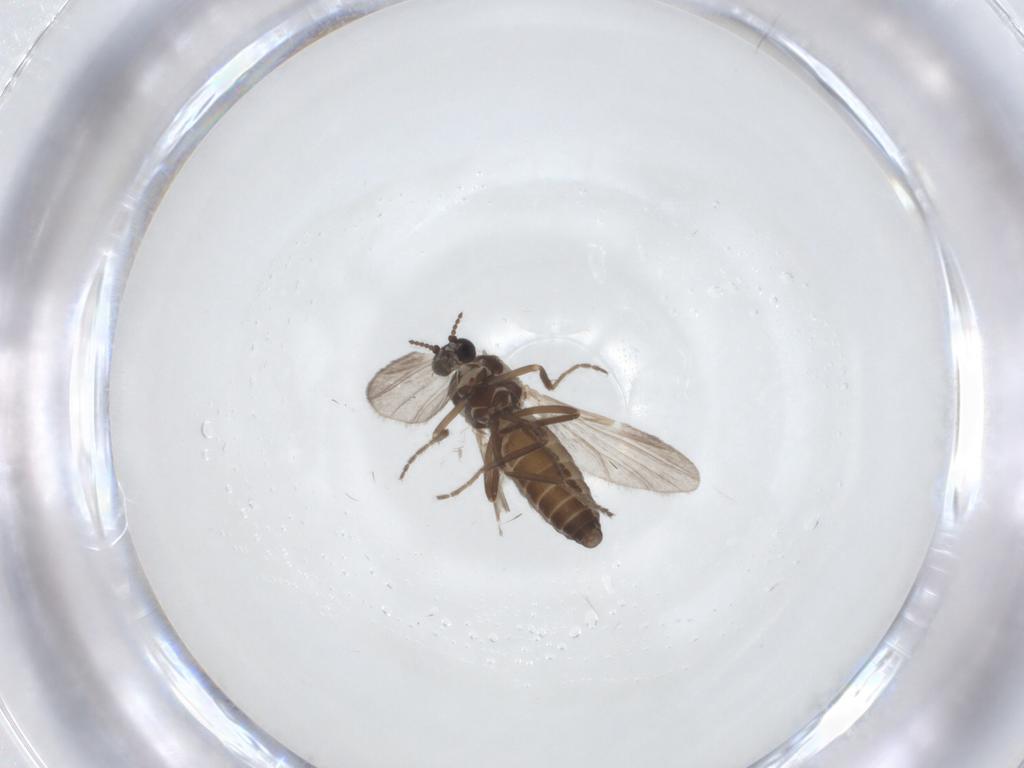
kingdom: Animalia
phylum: Arthropoda
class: Insecta
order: Diptera
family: Ceratopogonidae
